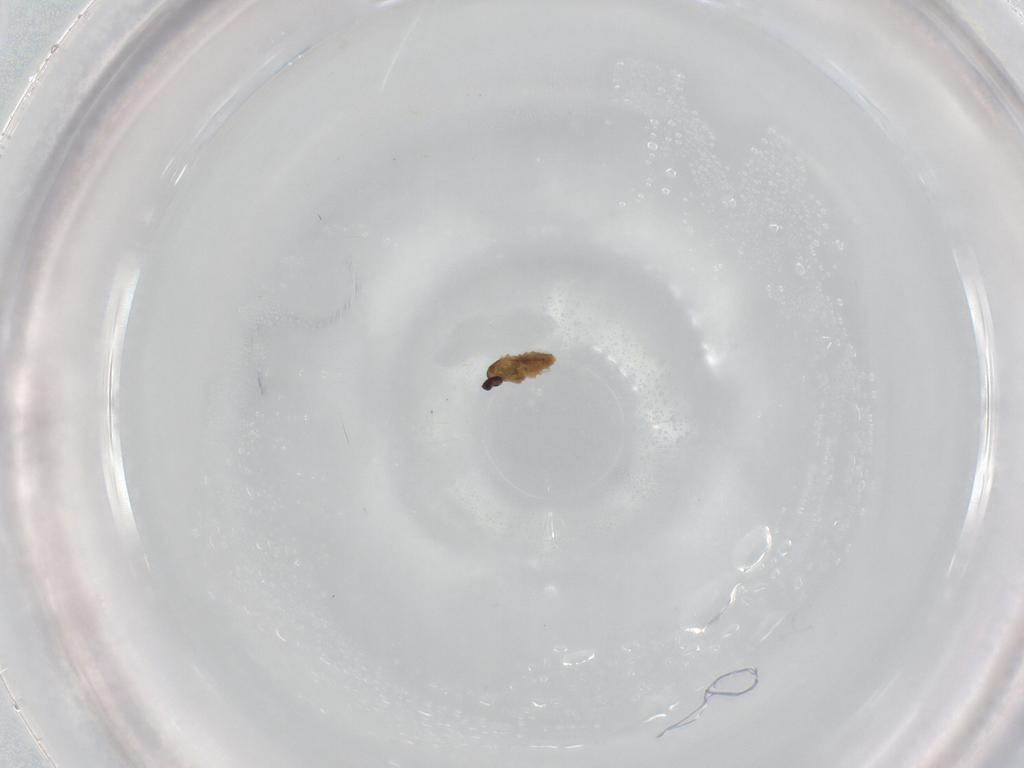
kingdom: Animalia
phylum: Arthropoda
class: Insecta
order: Diptera
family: Cecidomyiidae
